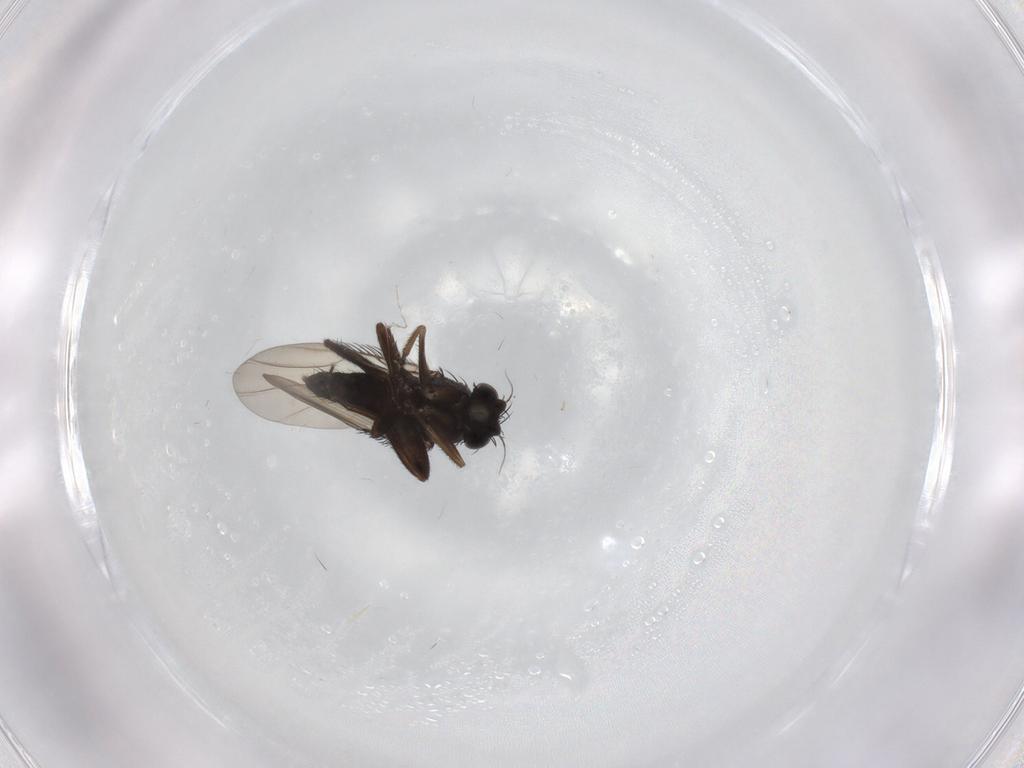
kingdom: Animalia
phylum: Arthropoda
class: Insecta
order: Diptera
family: Phoridae
